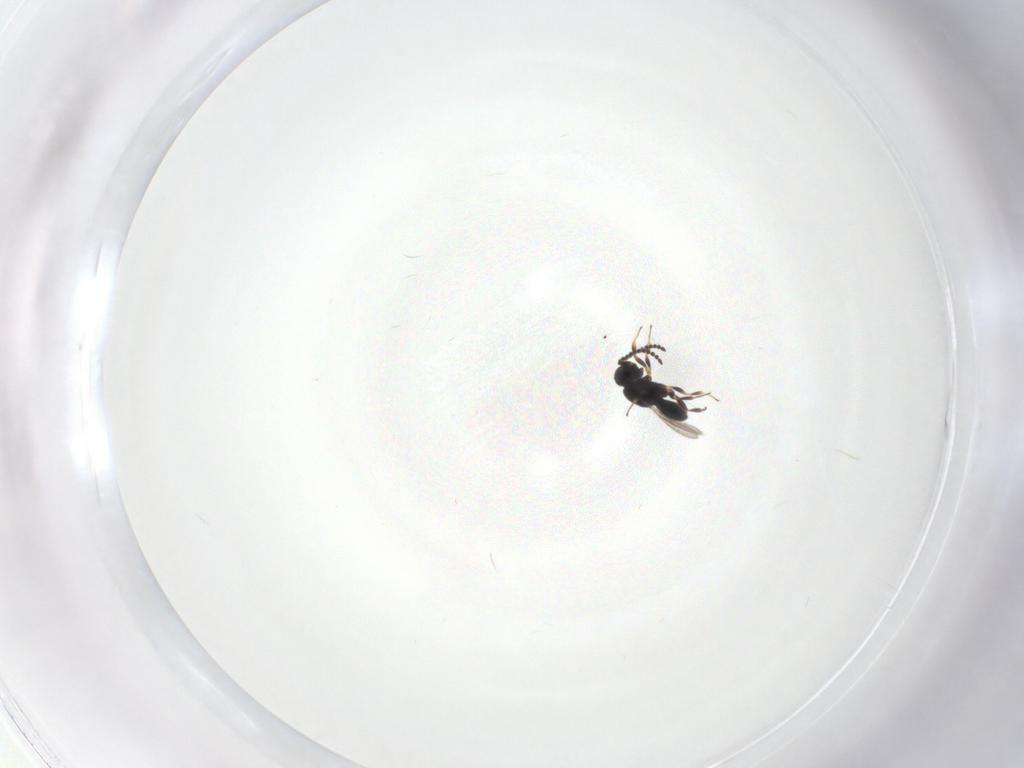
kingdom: Animalia
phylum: Arthropoda
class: Insecta
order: Hymenoptera
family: Scelionidae
